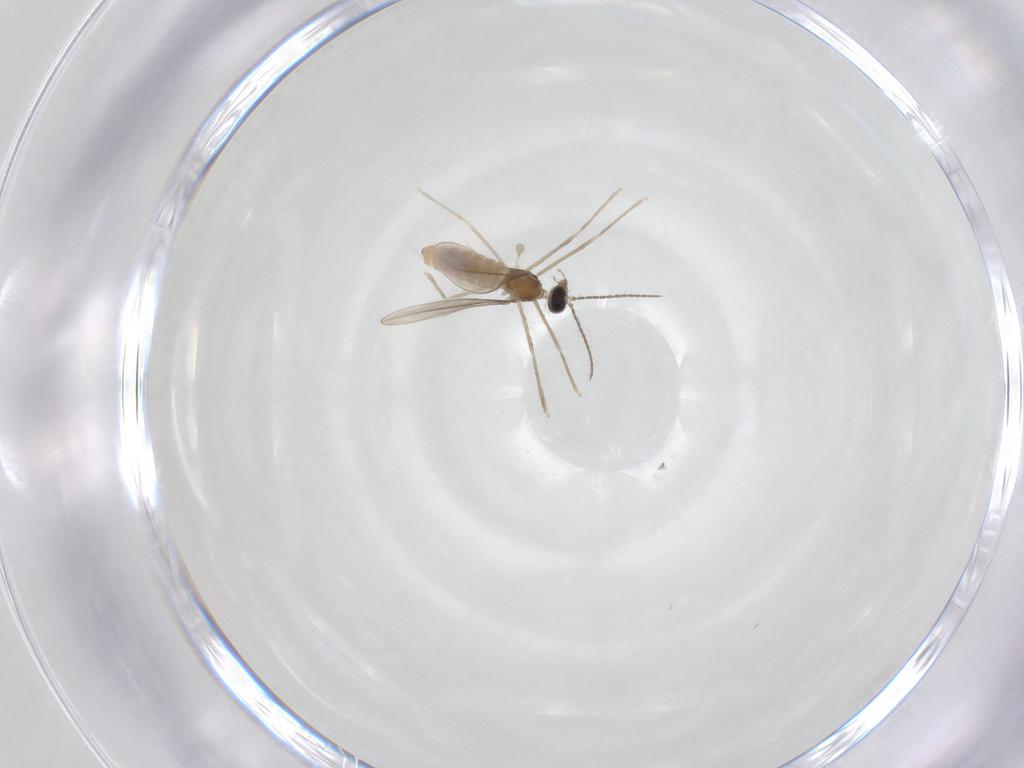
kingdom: Animalia
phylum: Arthropoda
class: Insecta
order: Diptera
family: Cecidomyiidae
